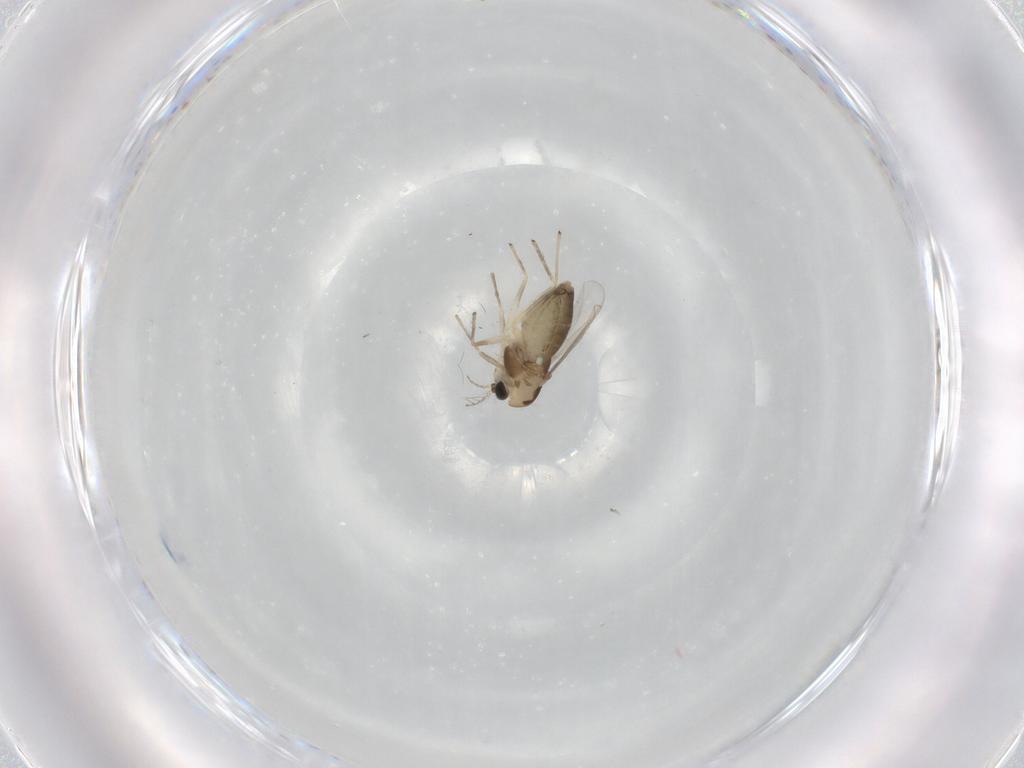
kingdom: Animalia
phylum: Arthropoda
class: Insecta
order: Diptera
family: Chironomidae
